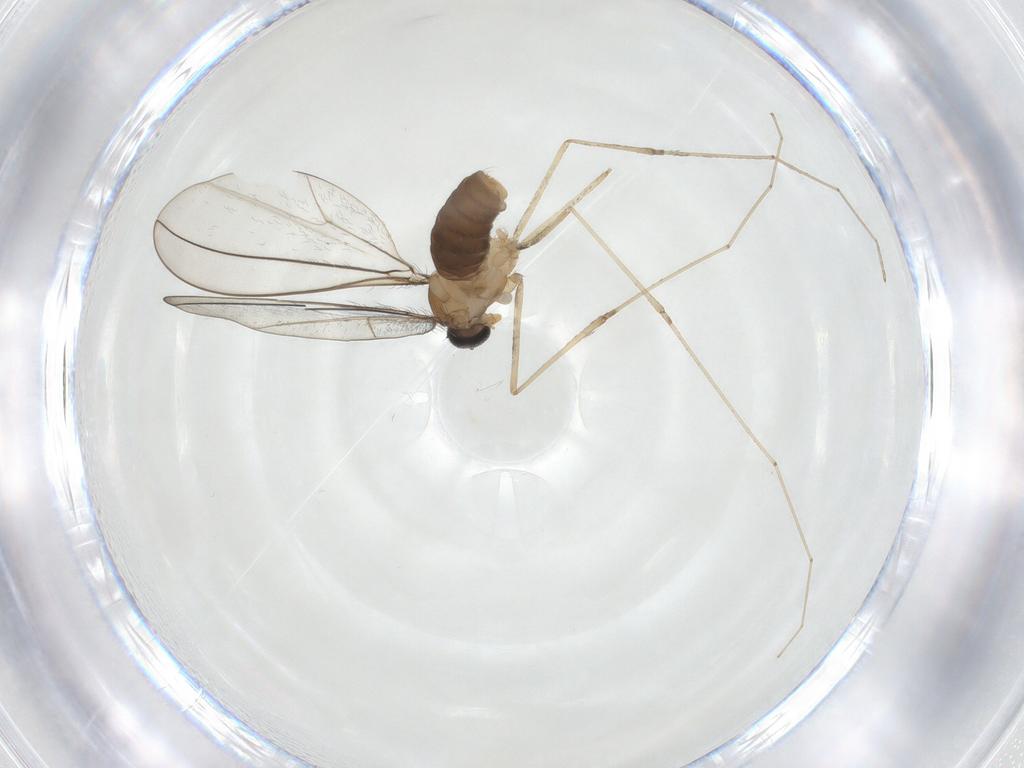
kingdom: Animalia
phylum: Arthropoda
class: Insecta
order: Diptera
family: Cecidomyiidae
